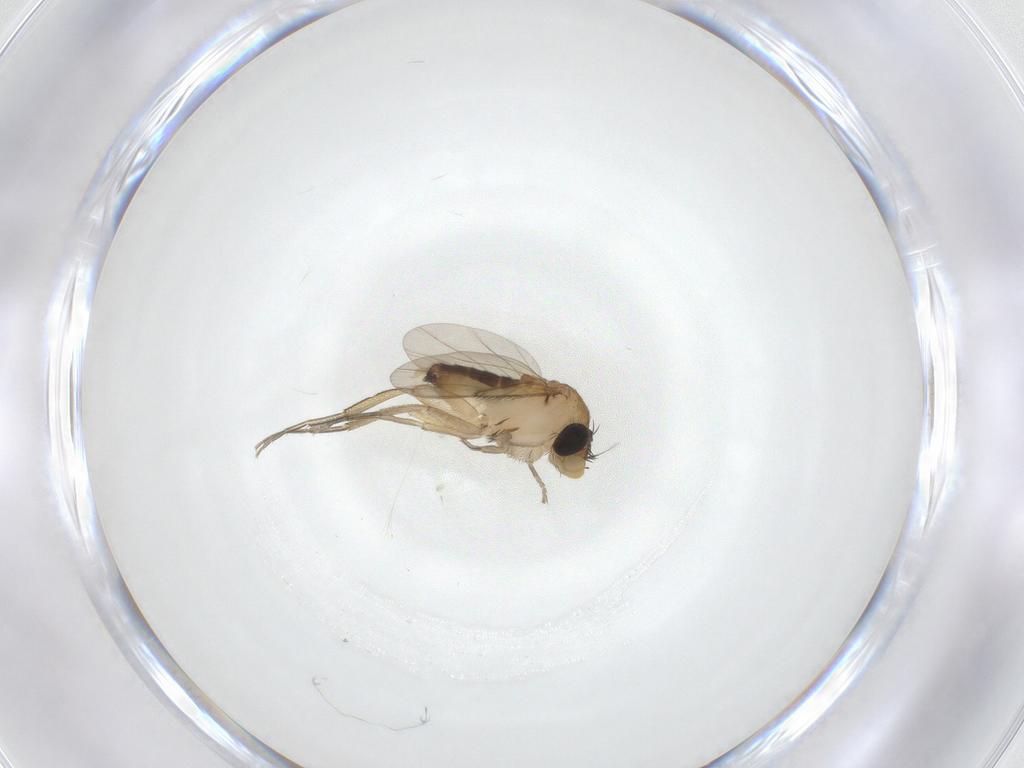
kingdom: Animalia
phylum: Arthropoda
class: Insecta
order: Diptera
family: Phoridae
